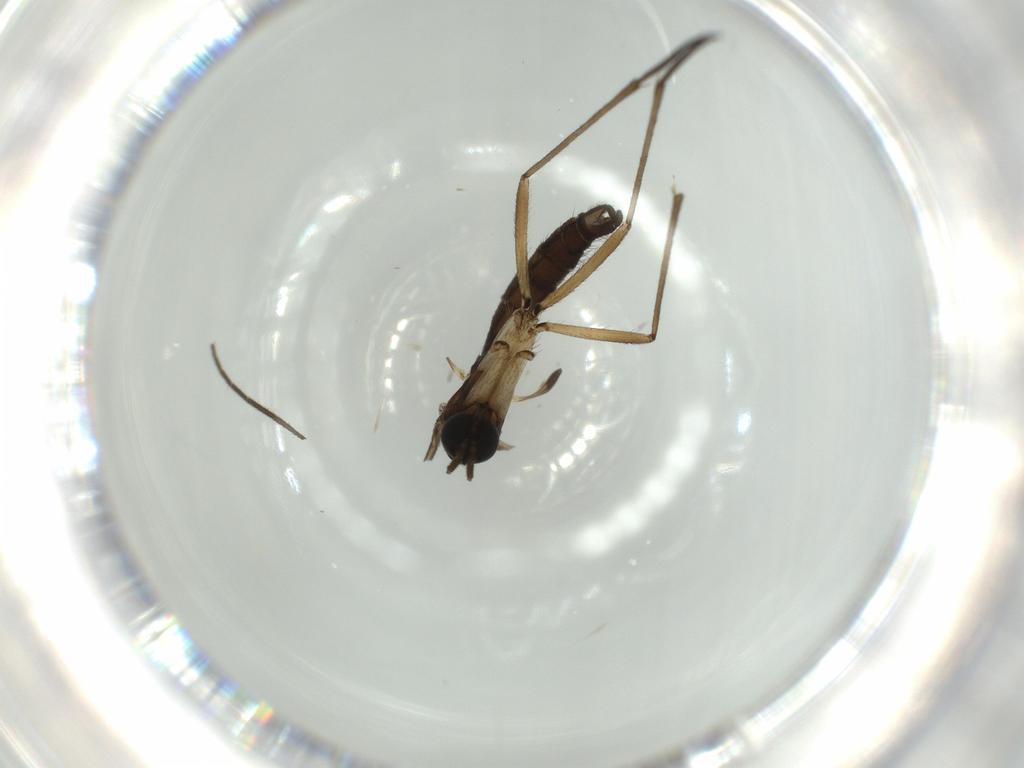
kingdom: Animalia
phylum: Arthropoda
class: Insecta
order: Diptera
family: Sciaridae
